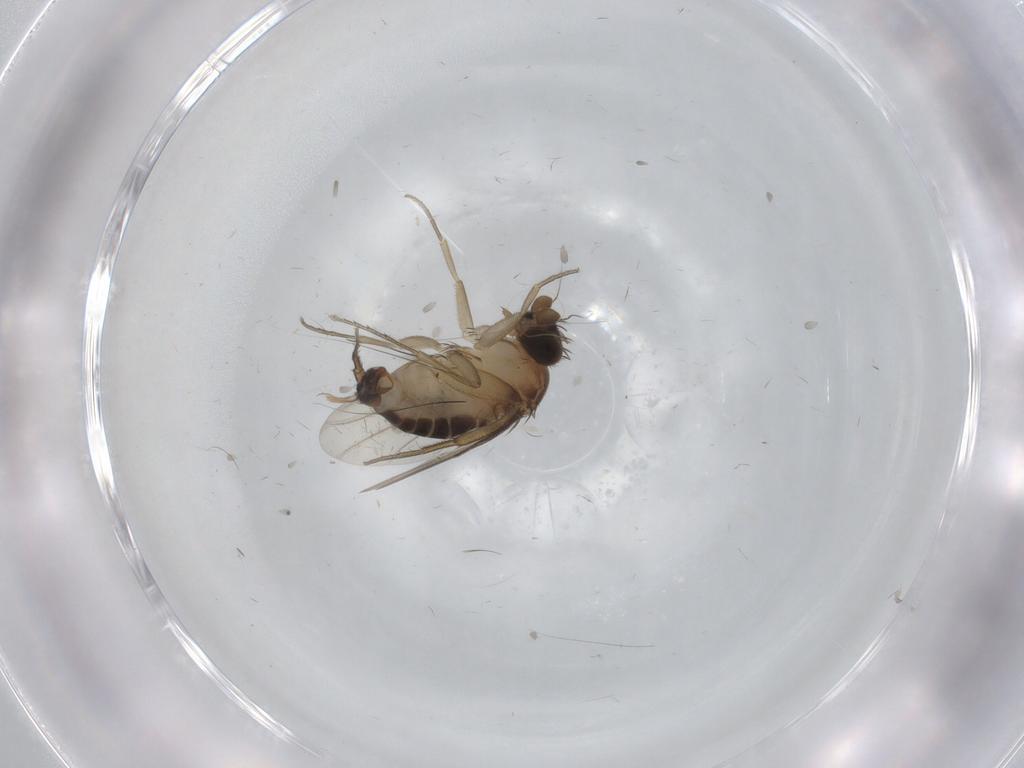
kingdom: Animalia
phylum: Arthropoda
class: Insecta
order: Diptera
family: Phoridae
